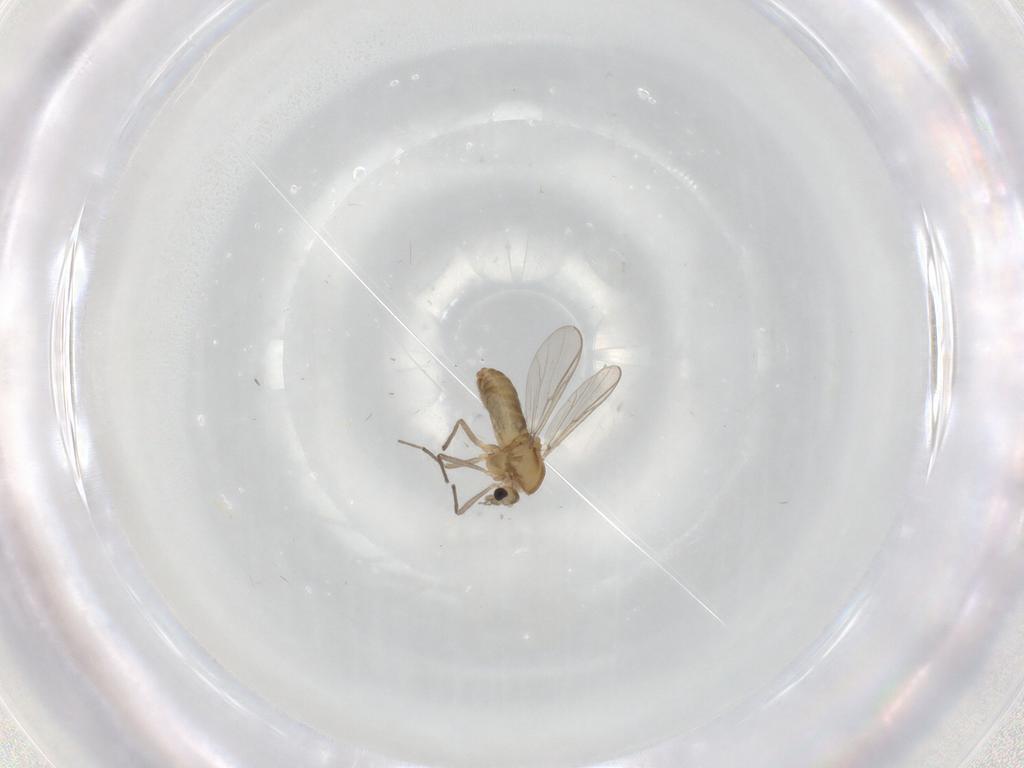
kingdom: Animalia
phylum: Arthropoda
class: Insecta
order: Diptera
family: Chironomidae
